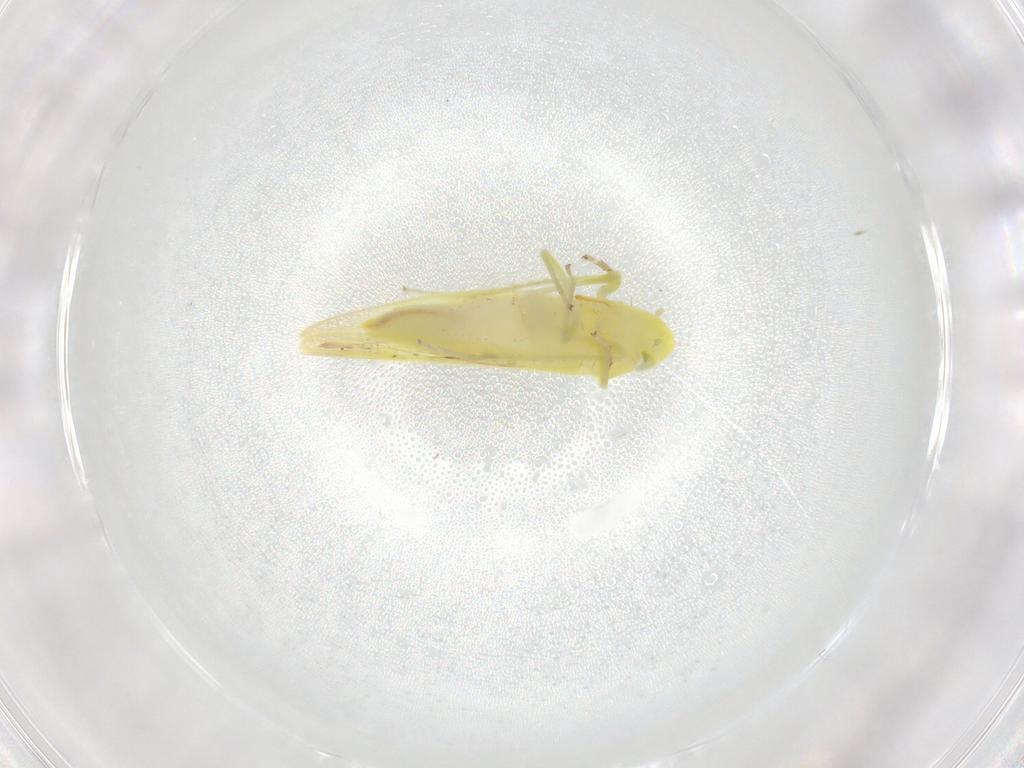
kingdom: Animalia
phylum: Arthropoda
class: Insecta
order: Hemiptera
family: Cicadellidae
